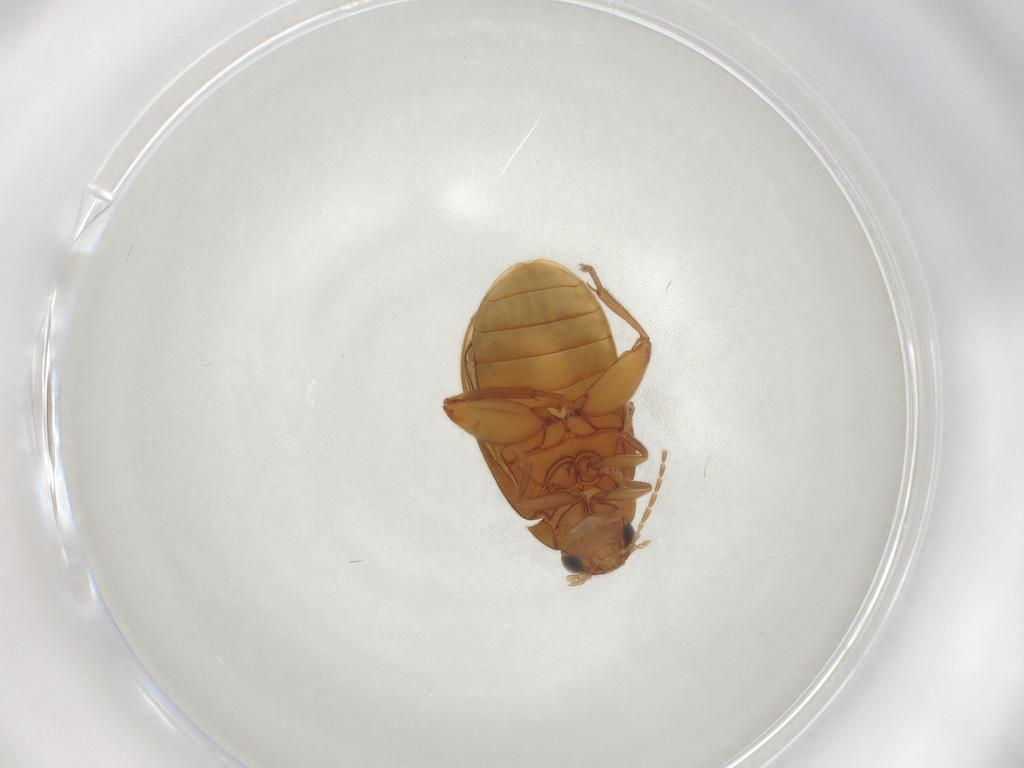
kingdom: Animalia
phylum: Arthropoda
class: Insecta
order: Coleoptera
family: Scirtidae
